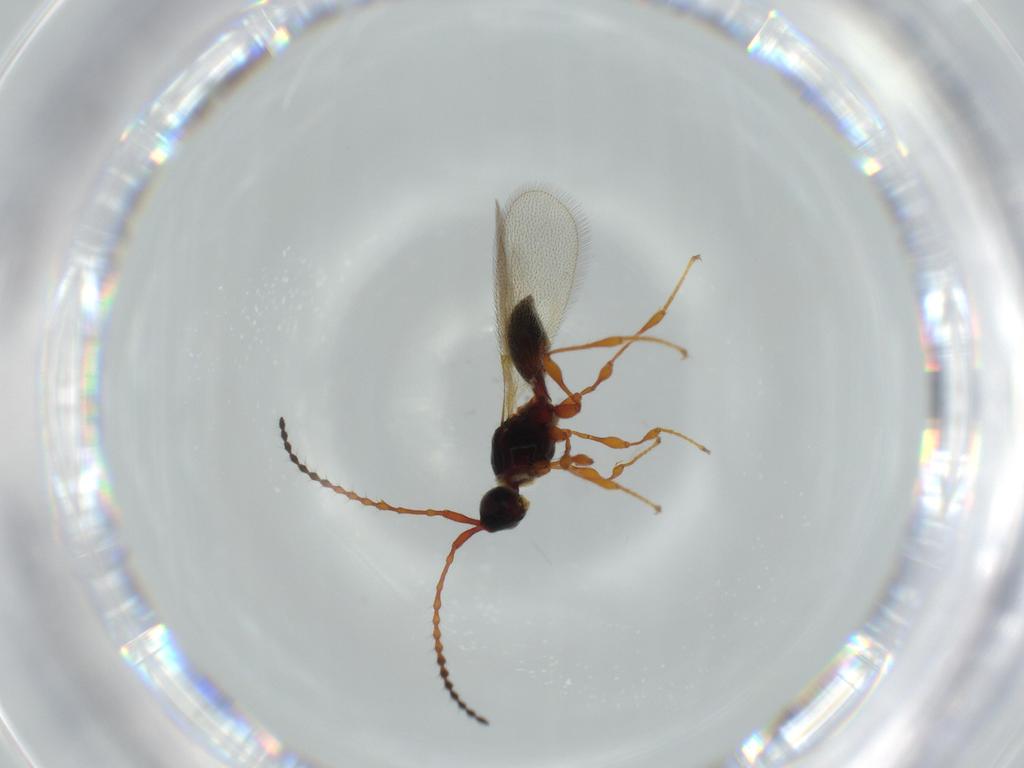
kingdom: Animalia
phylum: Arthropoda
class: Insecta
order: Hymenoptera
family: Diapriidae
